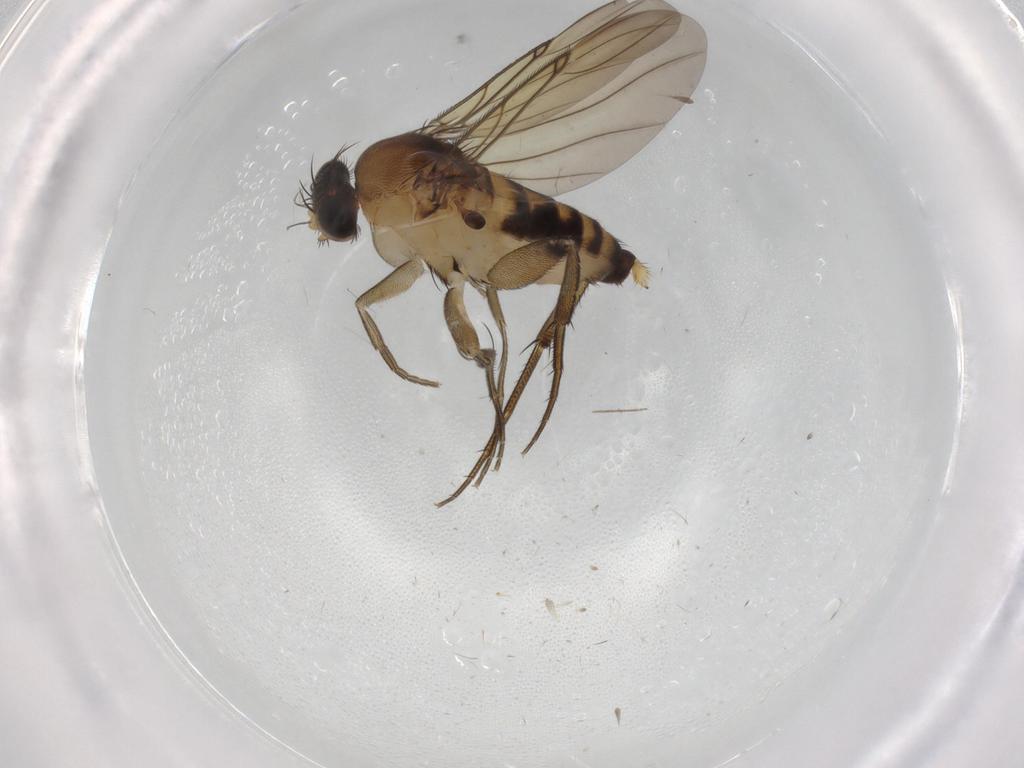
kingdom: Animalia
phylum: Arthropoda
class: Insecta
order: Diptera
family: Phoridae
